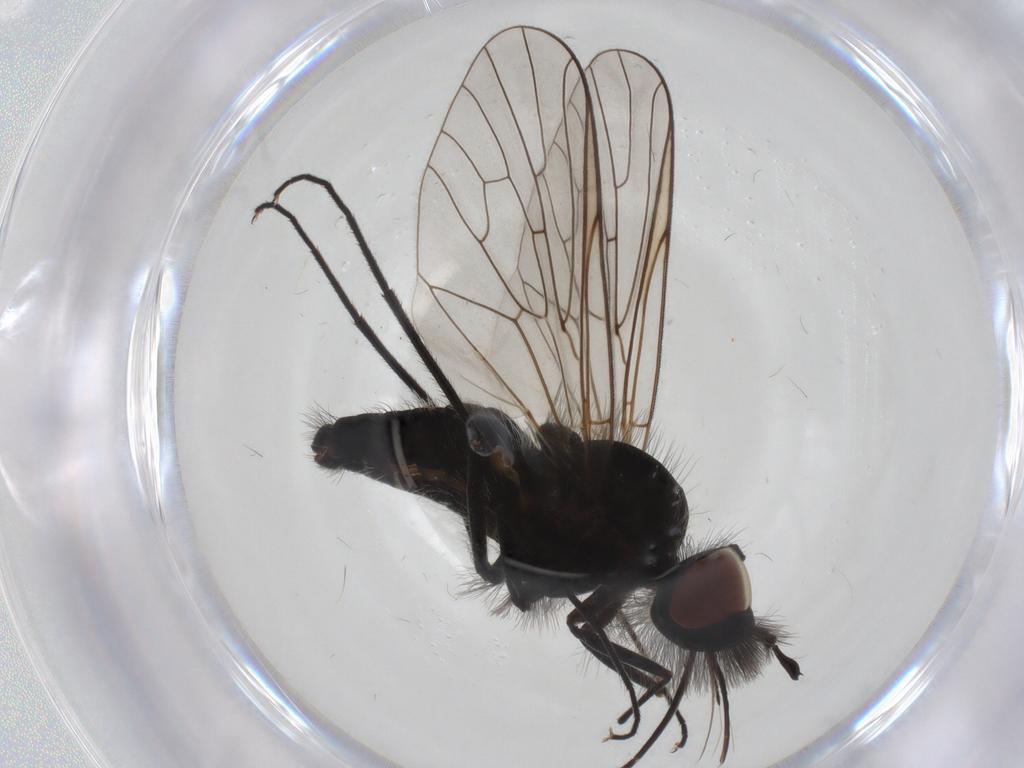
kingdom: Animalia
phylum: Arthropoda
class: Insecta
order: Diptera
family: Bombyliidae
